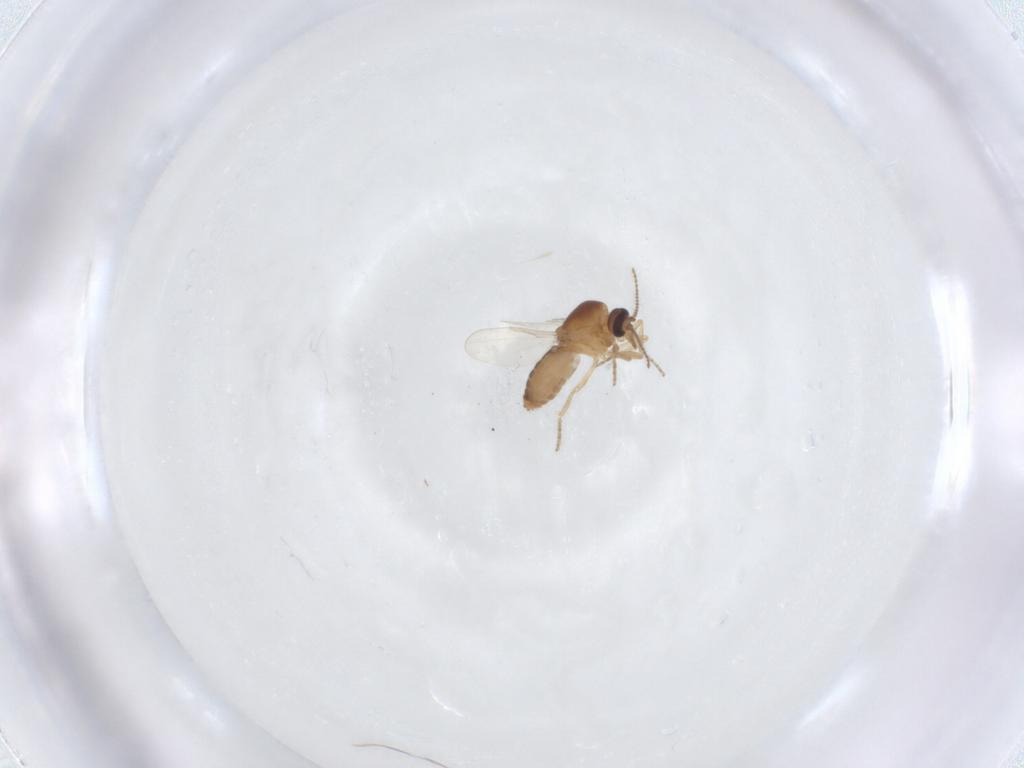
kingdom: Animalia
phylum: Arthropoda
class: Insecta
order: Diptera
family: Ceratopogonidae
